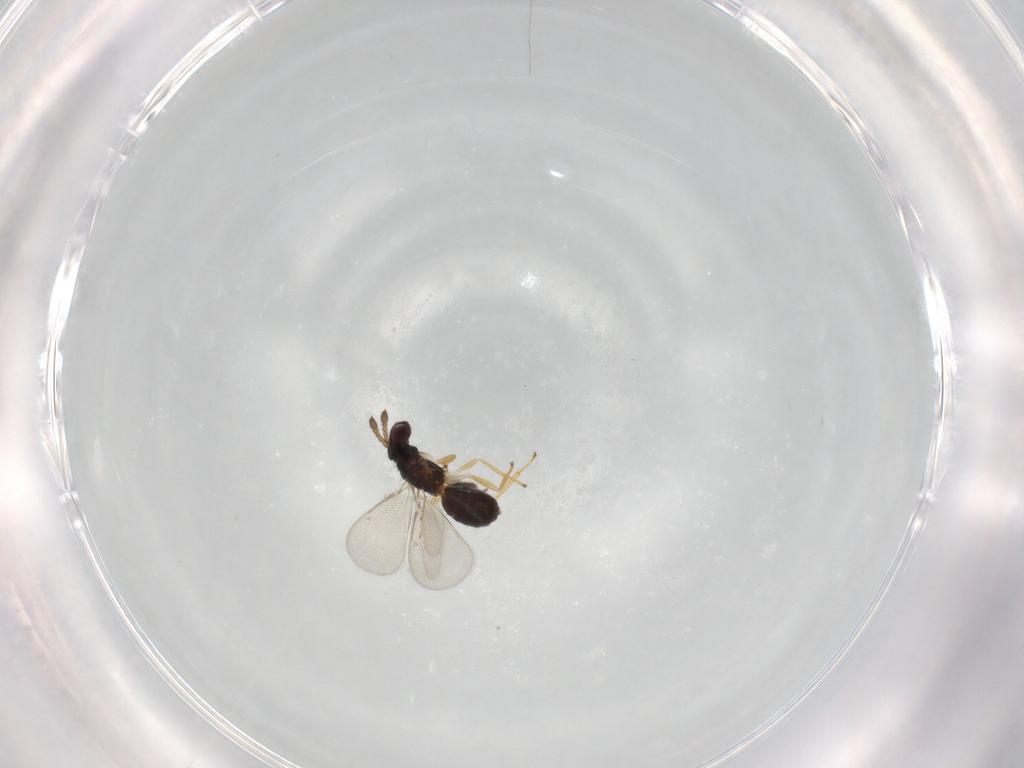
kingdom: Animalia
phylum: Arthropoda
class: Insecta
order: Hymenoptera
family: Eulophidae
